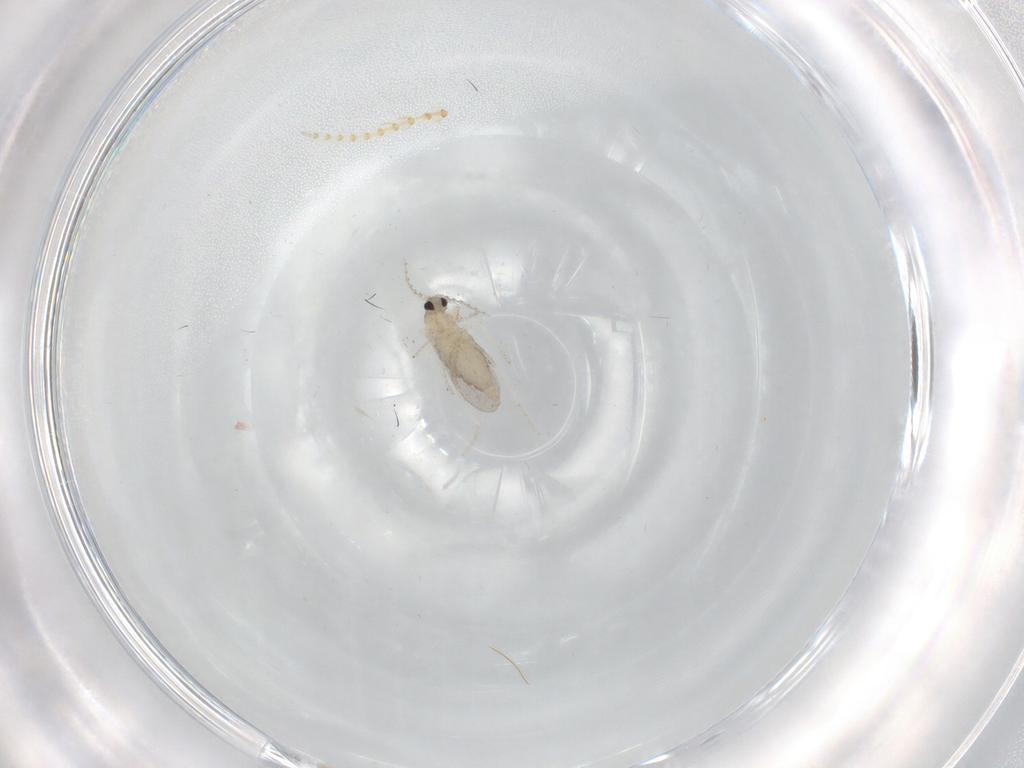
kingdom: Animalia
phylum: Arthropoda
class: Insecta
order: Diptera
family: Cecidomyiidae
